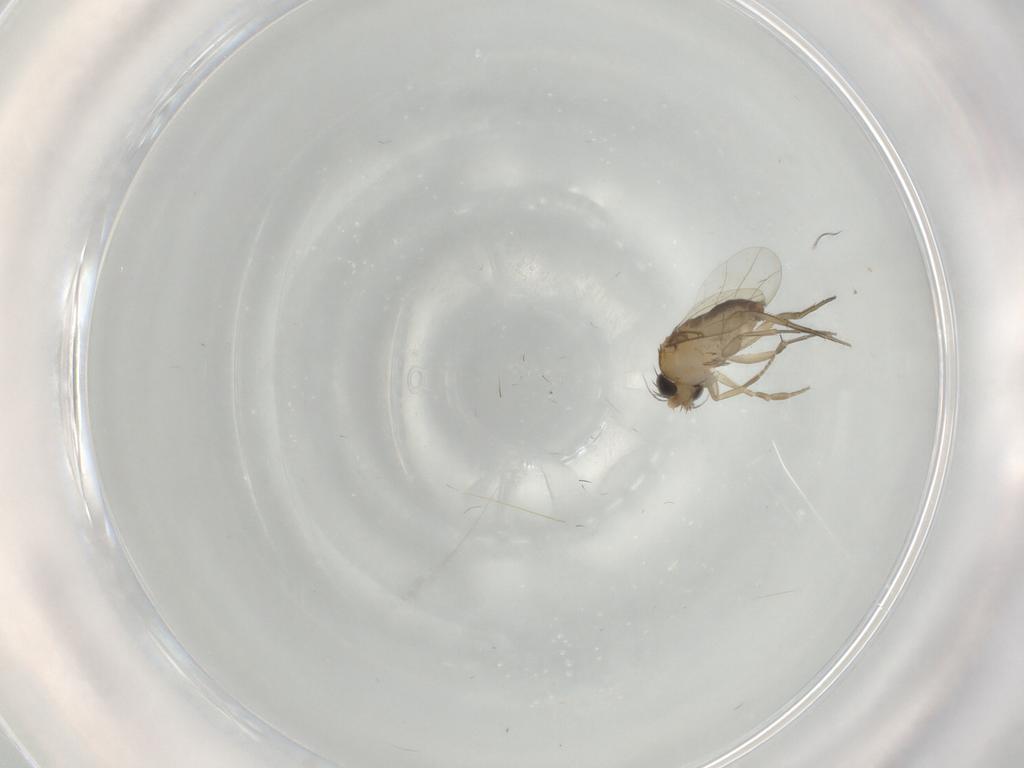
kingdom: Animalia
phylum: Arthropoda
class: Insecta
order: Diptera
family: Phoridae
